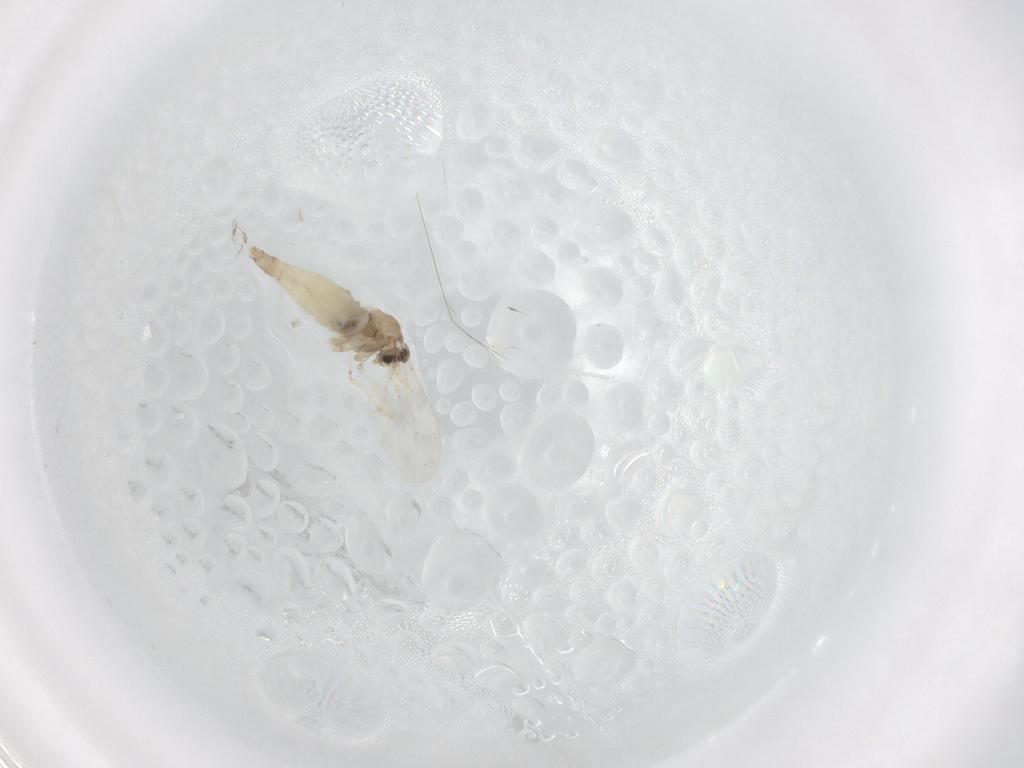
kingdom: Animalia
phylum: Arthropoda
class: Insecta
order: Diptera
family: Cecidomyiidae
